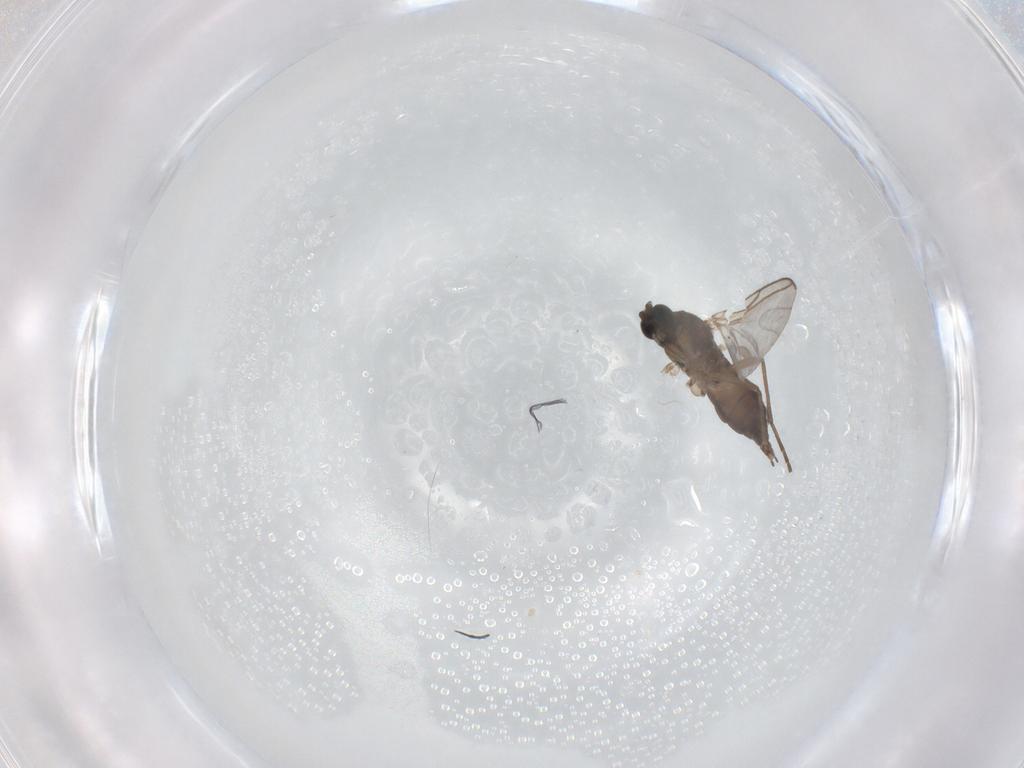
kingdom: Animalia
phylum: Arthropoda
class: Insecta
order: Diptera
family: Sciaridae
